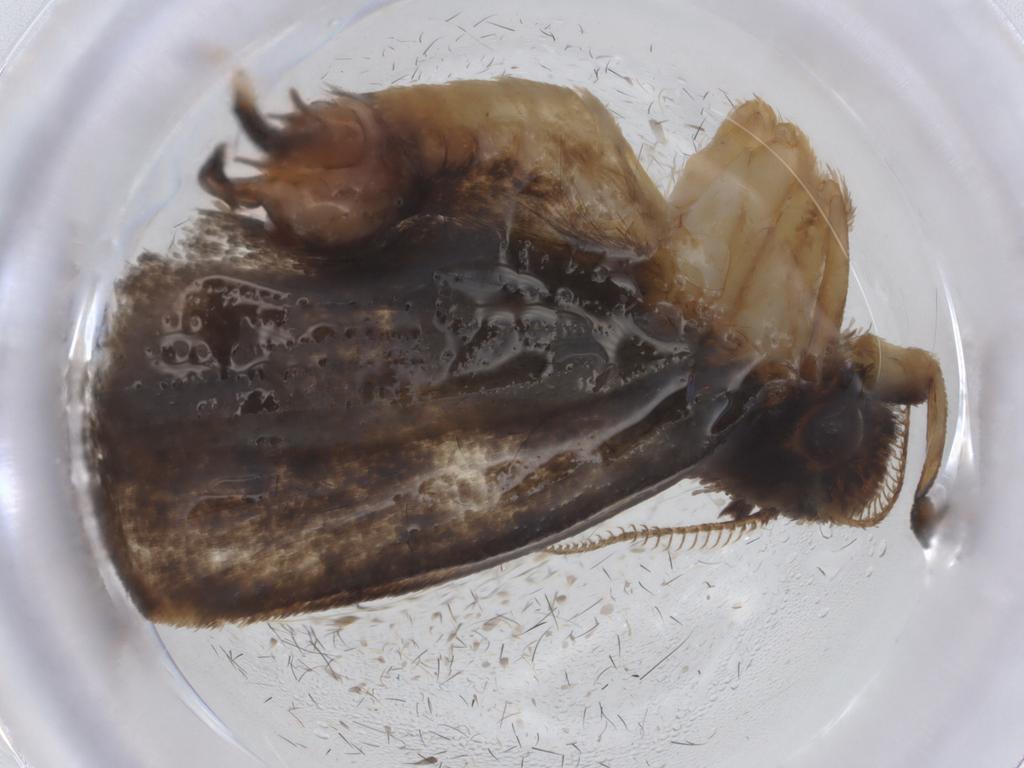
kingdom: Animalia
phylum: Arthropoda
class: Insecta
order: Lepidoptera
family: Tineidae
